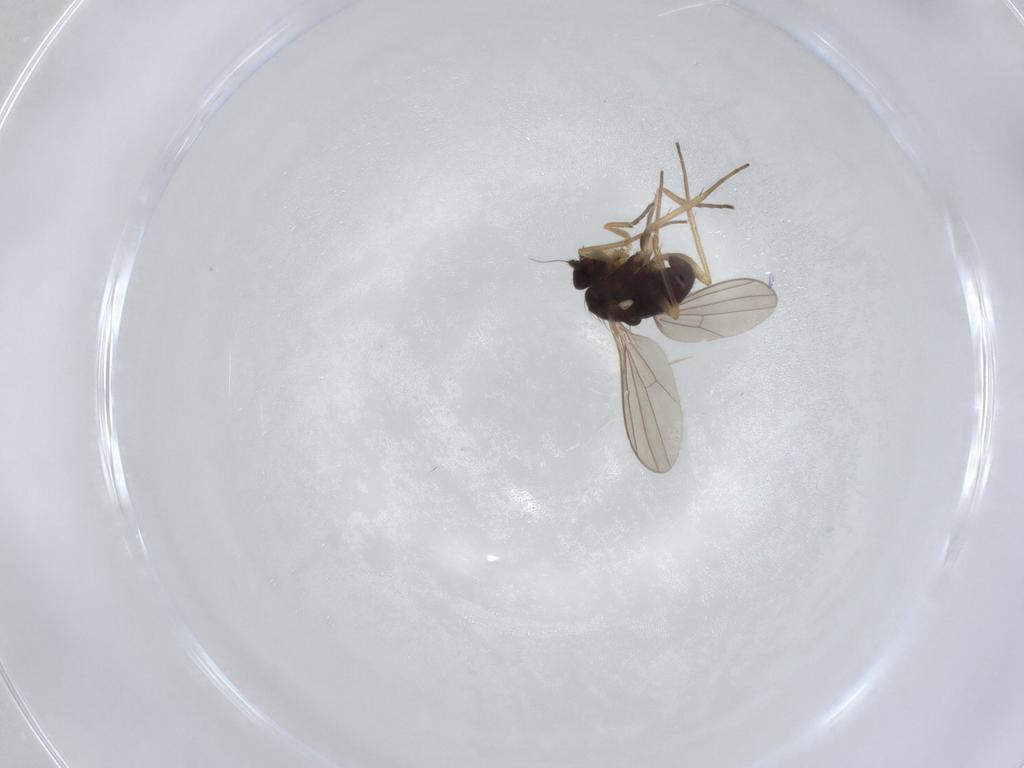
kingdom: Animalia
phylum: Arthropoda
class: Insecta
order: Diptera
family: Dolichopodidae
